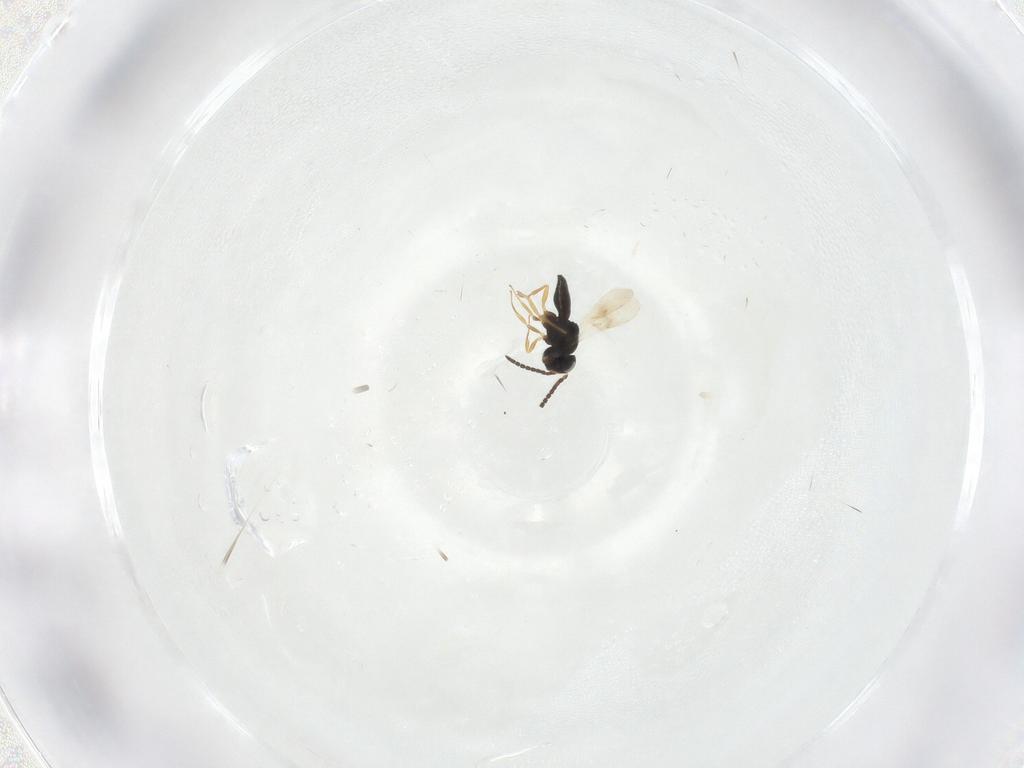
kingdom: Animalia
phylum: Arthropoda
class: Insecta
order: Hymenoptera
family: Scelionidae
